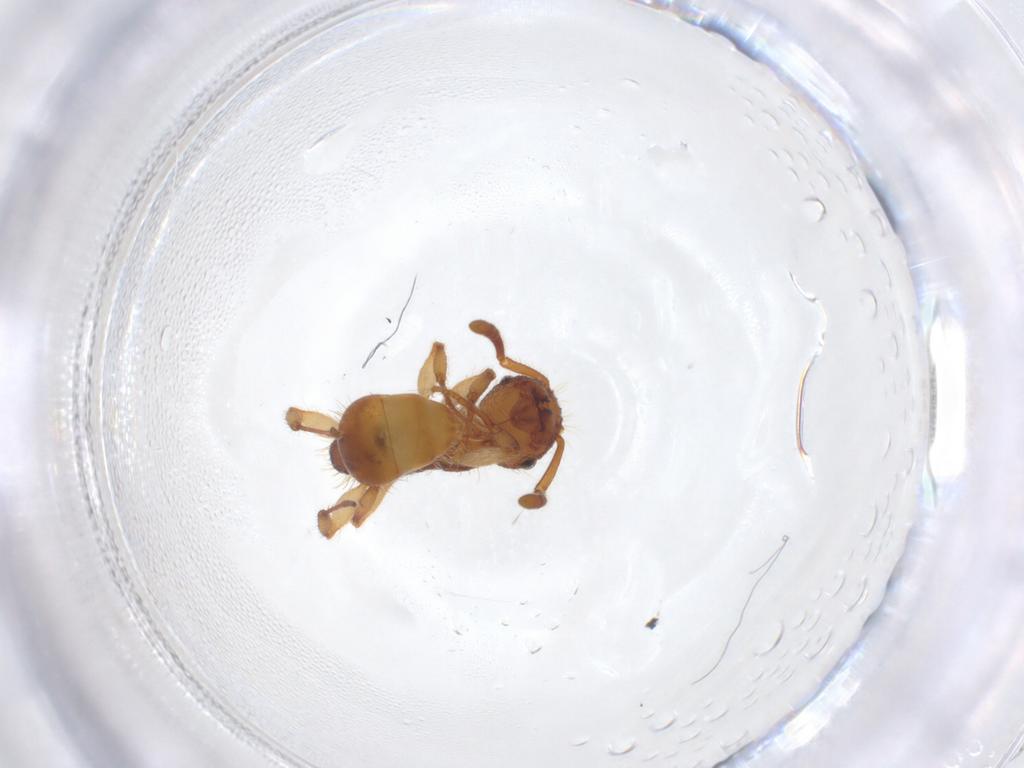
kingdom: Animalia
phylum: Arthropoda
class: Insecta
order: Hymenoptera
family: Formicidae
